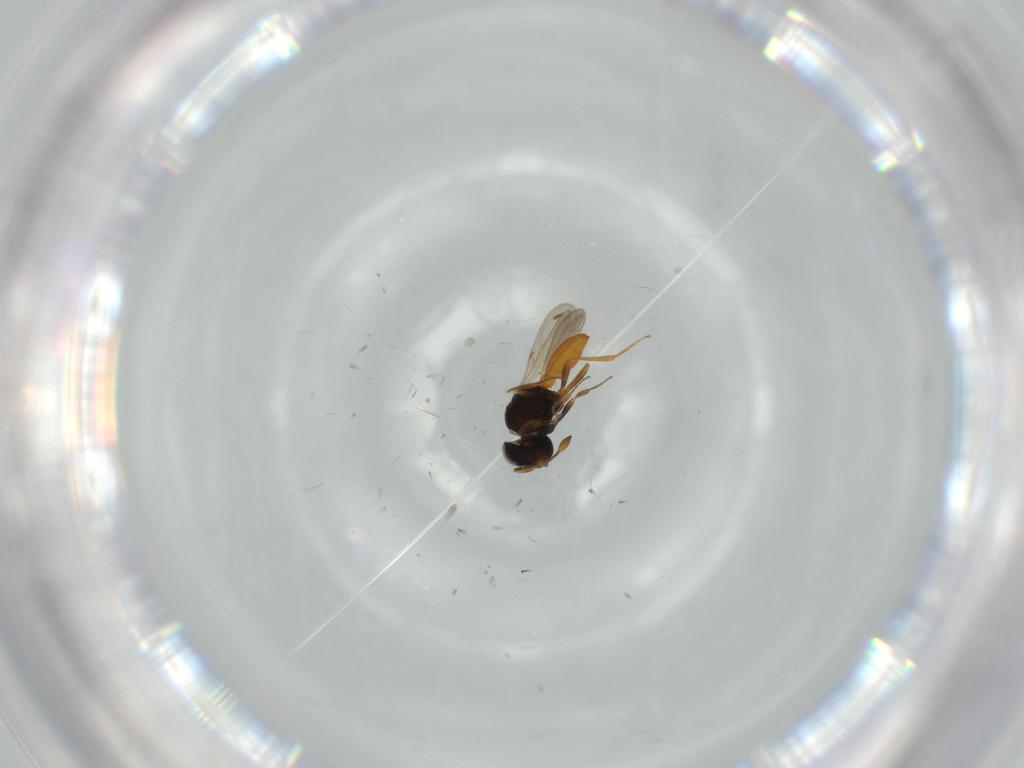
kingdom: Animalia
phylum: Arthropoda
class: Insecta
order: Hymenoptera
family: Scelionidae
